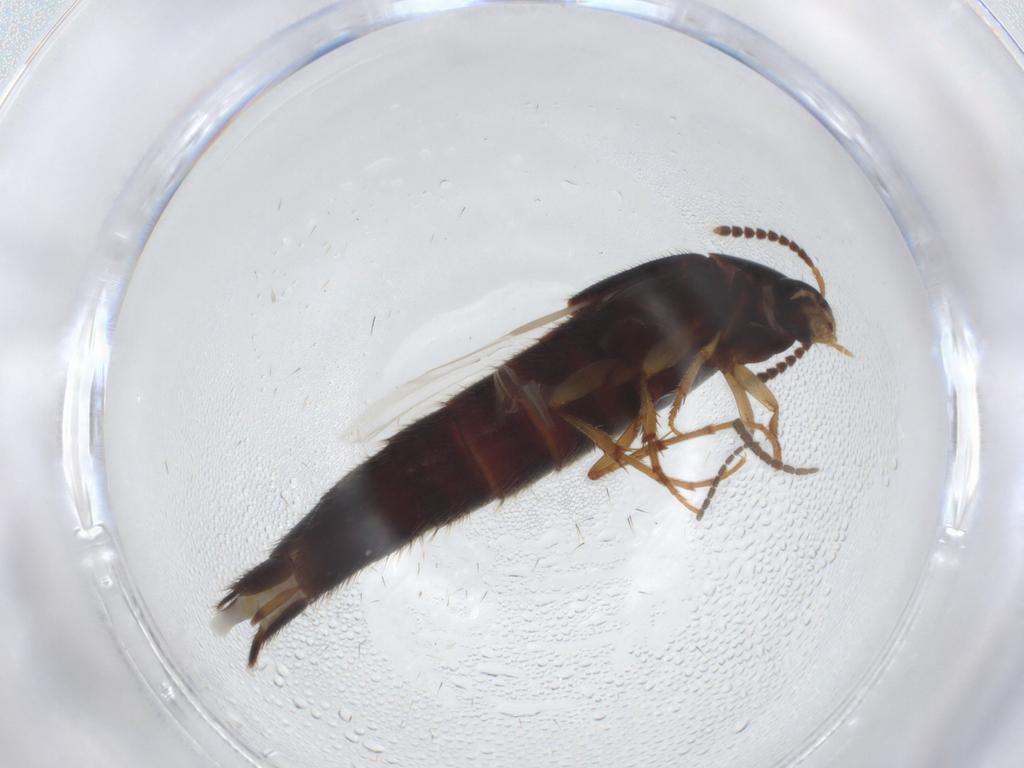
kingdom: Animalia
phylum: Arthropoda
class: Insecta
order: Coleoptera
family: Staphylinidae
